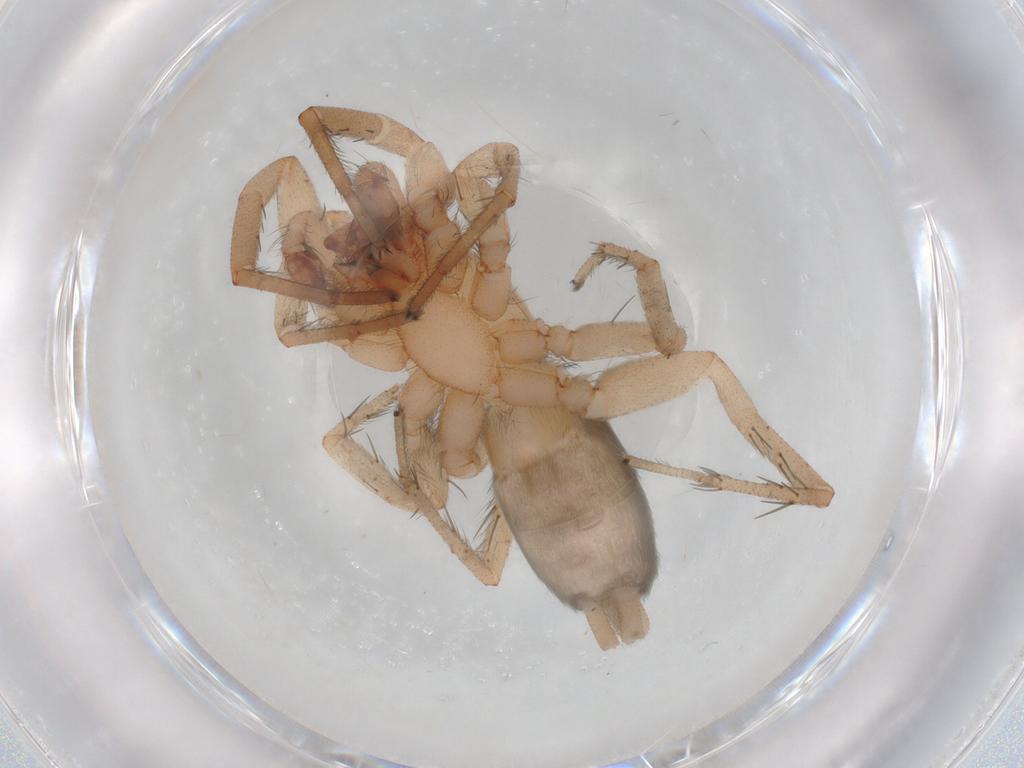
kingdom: Animalia
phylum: Arthropoda
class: Arachnida
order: Araneae
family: Gnaphosidae
